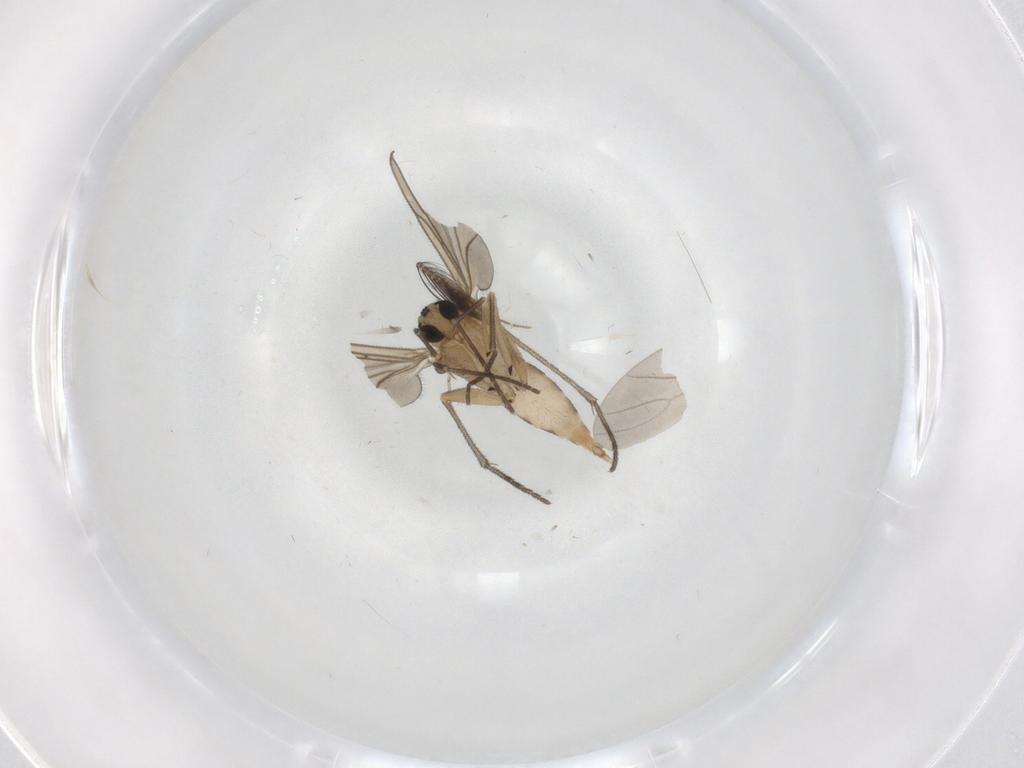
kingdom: Animalia
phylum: Arthropoda
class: Insecta
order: Diptera
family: Sciaridae
